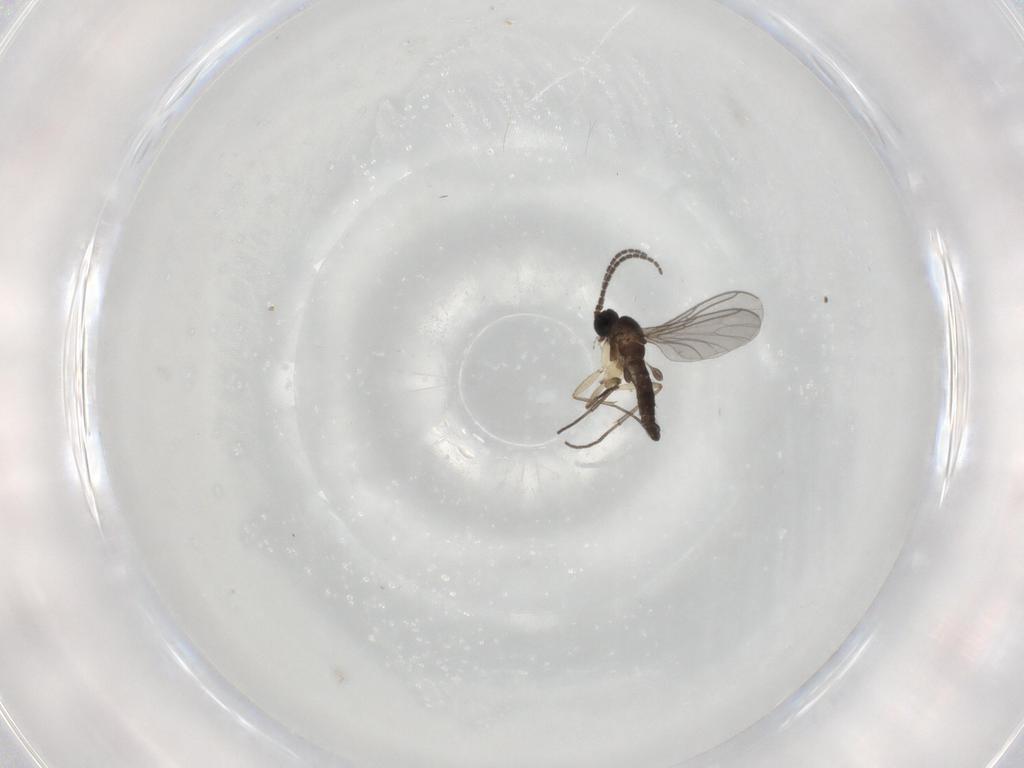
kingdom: Animalia
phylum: Arthropoda
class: Insecta
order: Diptera
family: Sciaridae
